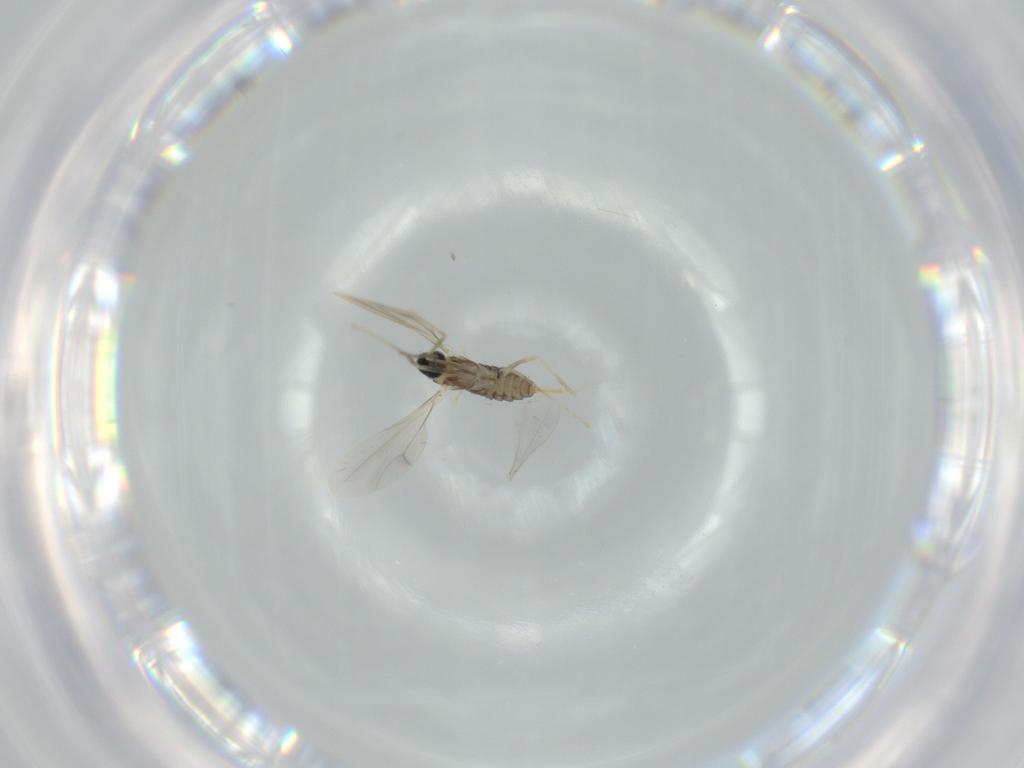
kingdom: Animalia
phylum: Arthropoda
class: Insecta
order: Diptera
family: Cecidomyiidae
